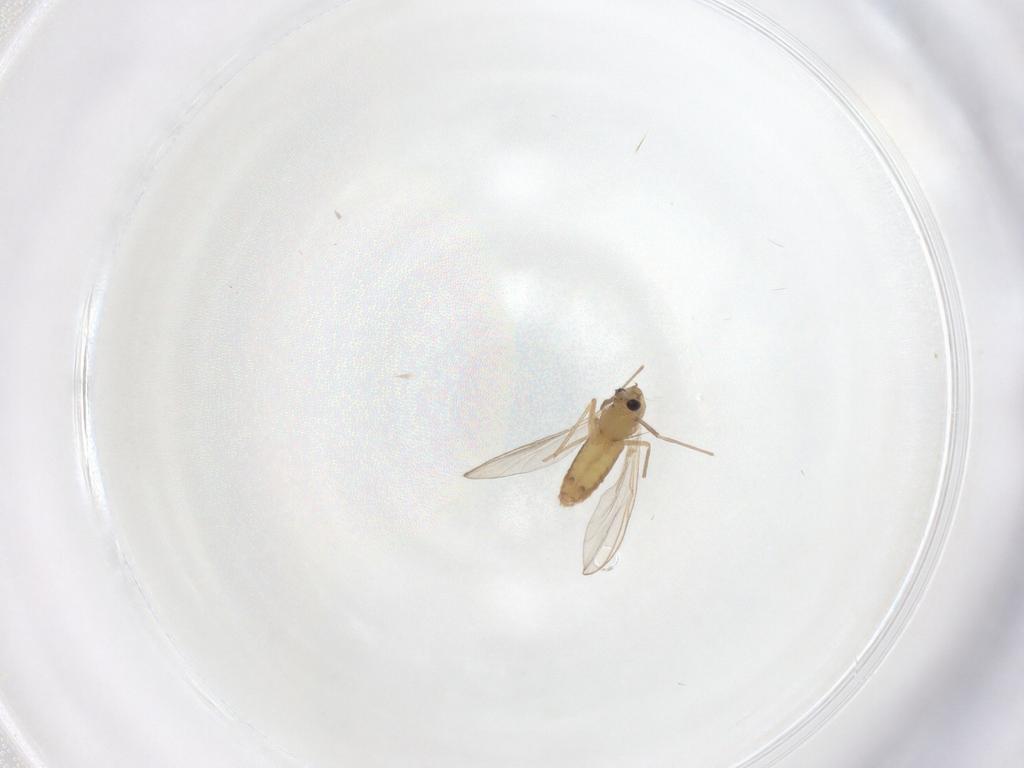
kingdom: Animalia
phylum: Arthropoda
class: Insecta
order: Diptera
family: Chironomidae
